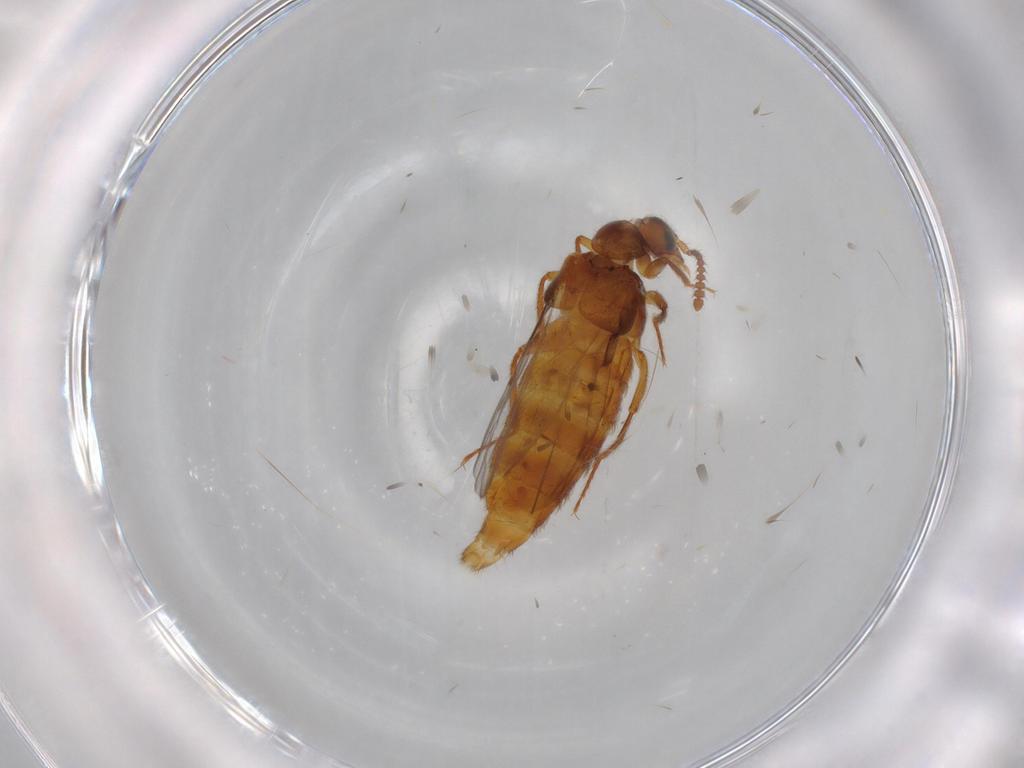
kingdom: Animalia
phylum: Arthropoda
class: Insecta
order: Coleoptera
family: Staphylinidae
